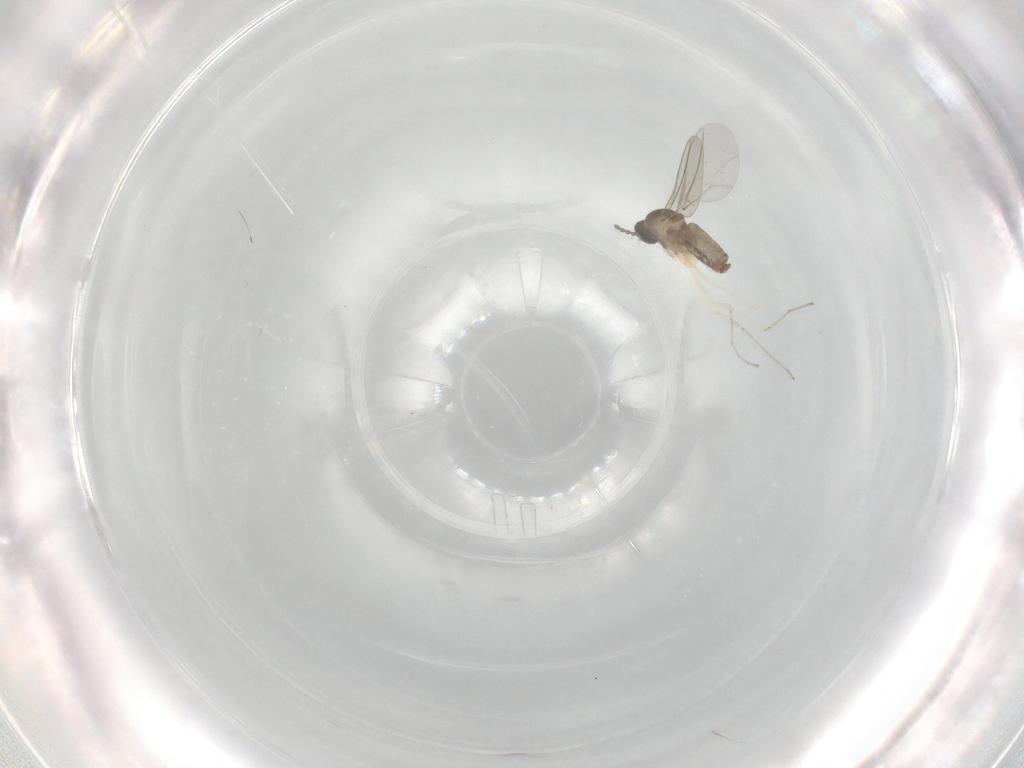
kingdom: Animalia
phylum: Arthropoda
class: Insecta
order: Diptera
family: Cecidomyiidae
